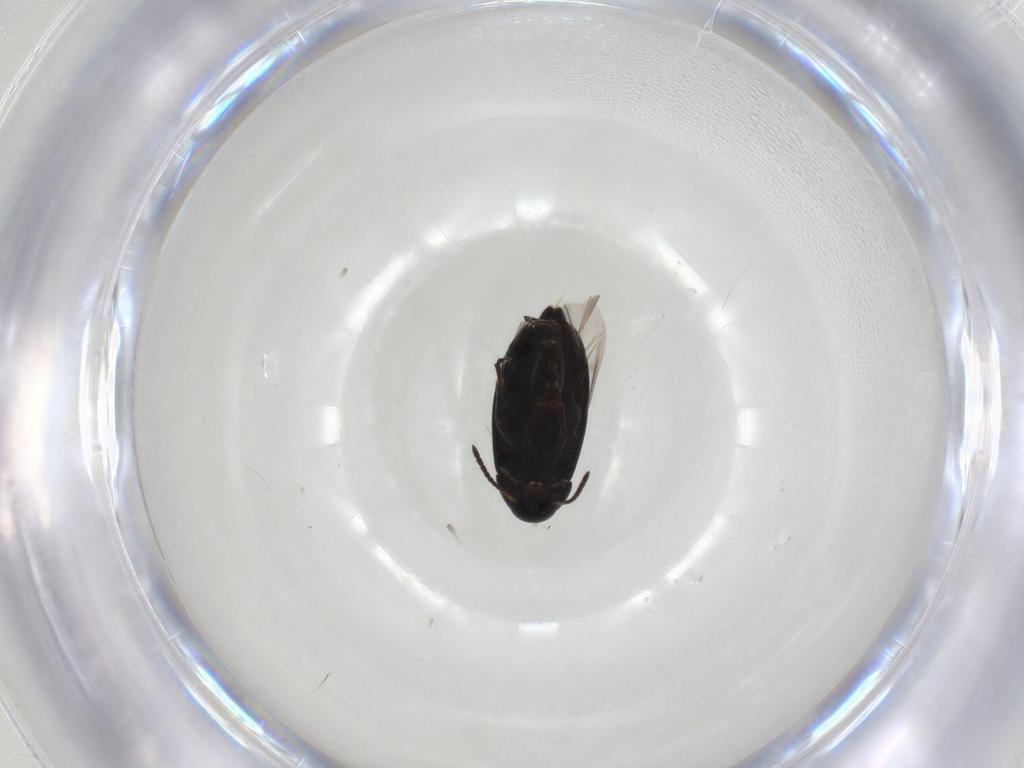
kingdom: Animalia
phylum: Arthropoda
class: Insecta
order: Coleoptera
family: Scraptiidae
